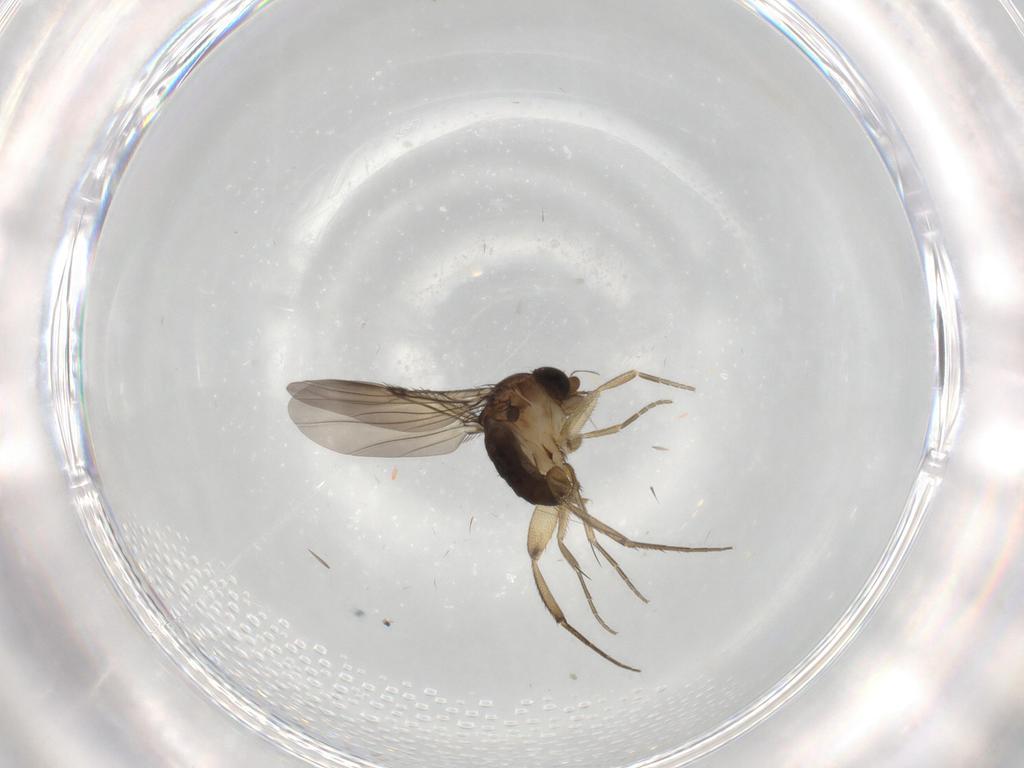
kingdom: Animalia
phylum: Arthropoda
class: Insecta
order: Diptera
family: Phoridae
